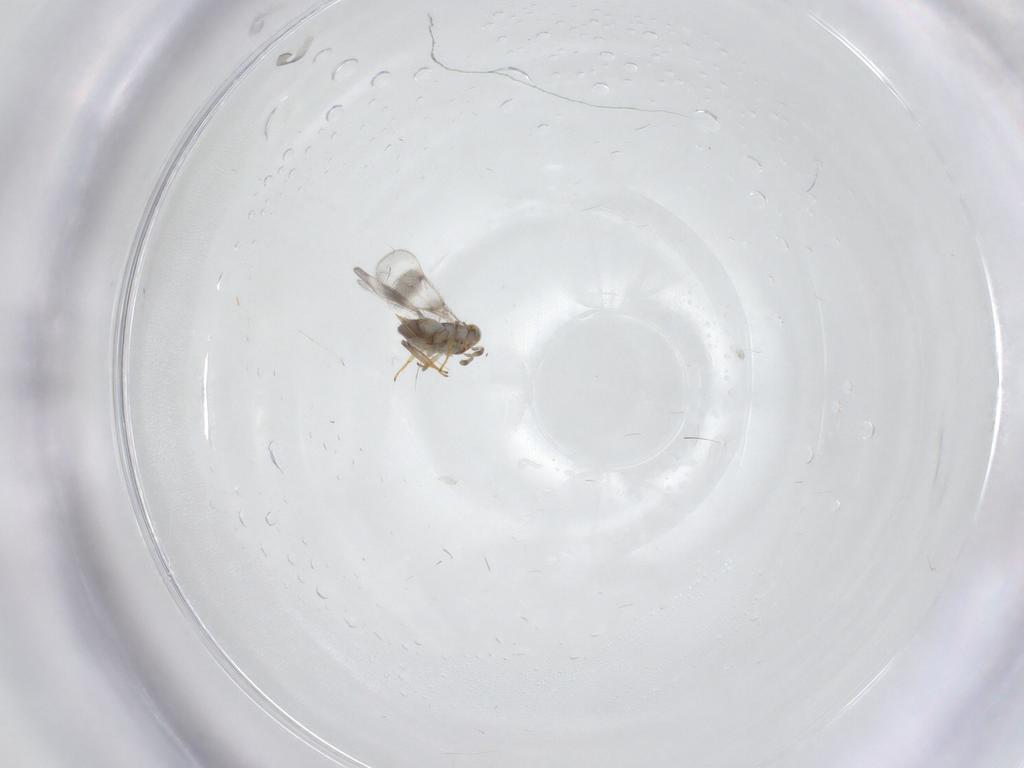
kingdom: Animalia
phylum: Arthropoda
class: Insecta
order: Hymenoptera
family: Aphelinidae
